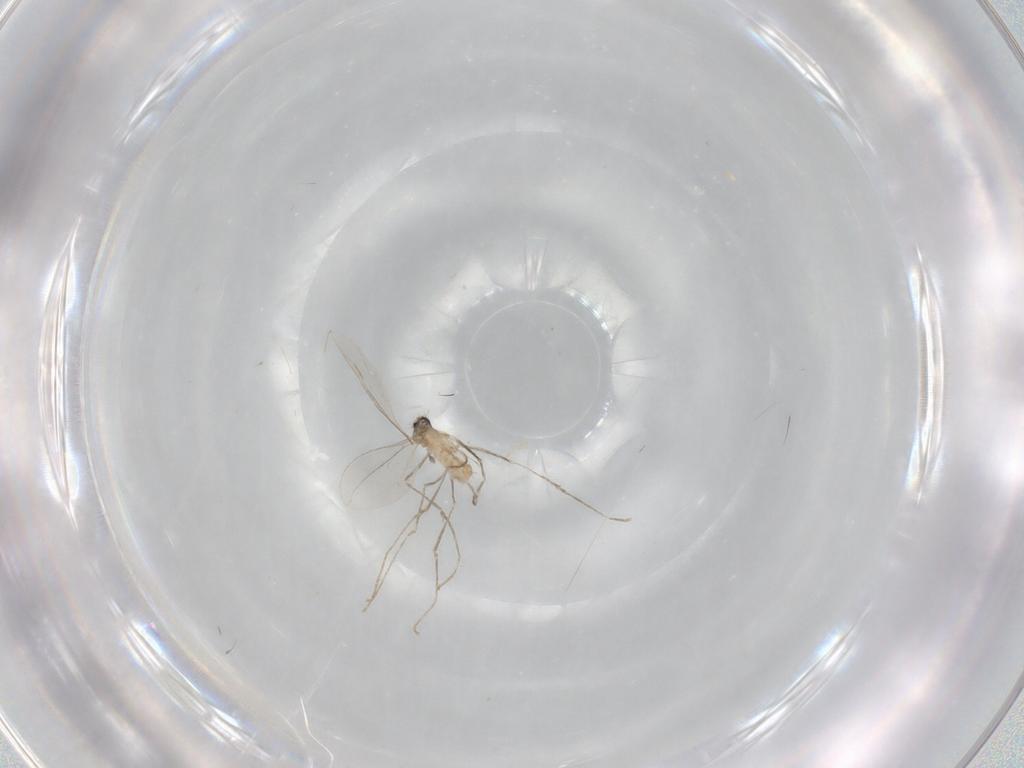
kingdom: Animalia
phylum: Arthropoda
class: Insecta
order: Diptera
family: Cecidomyiidae
